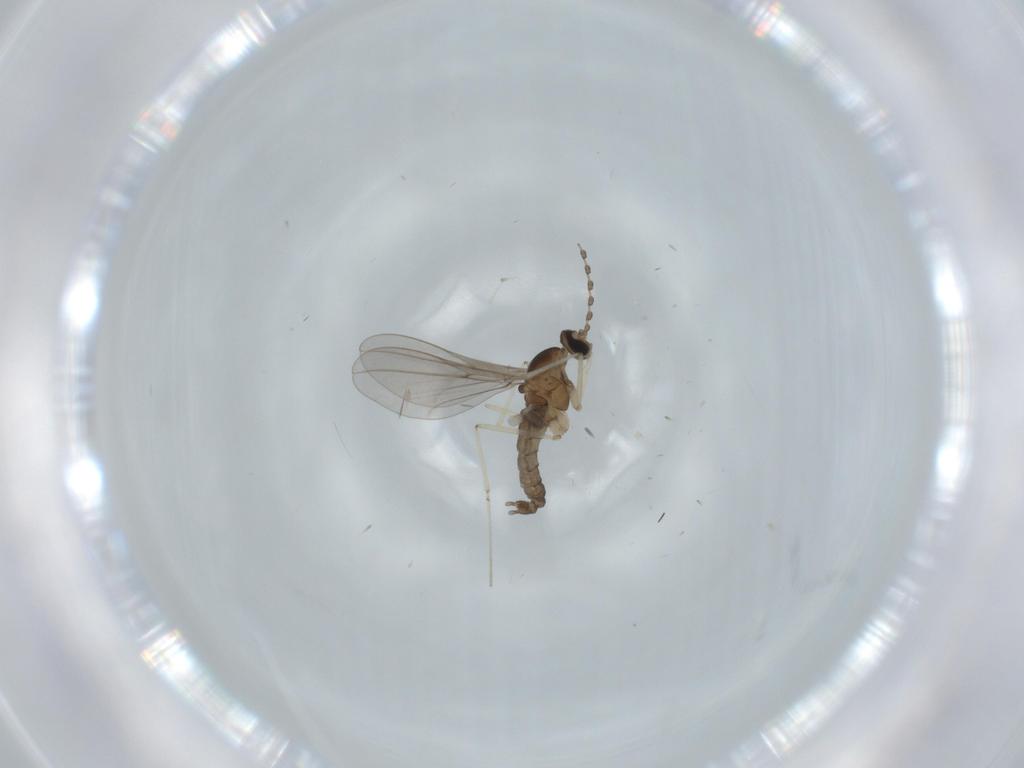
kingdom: Animalia
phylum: Arthropoda
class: Insecta
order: Diptera
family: Cecidomyiidae
